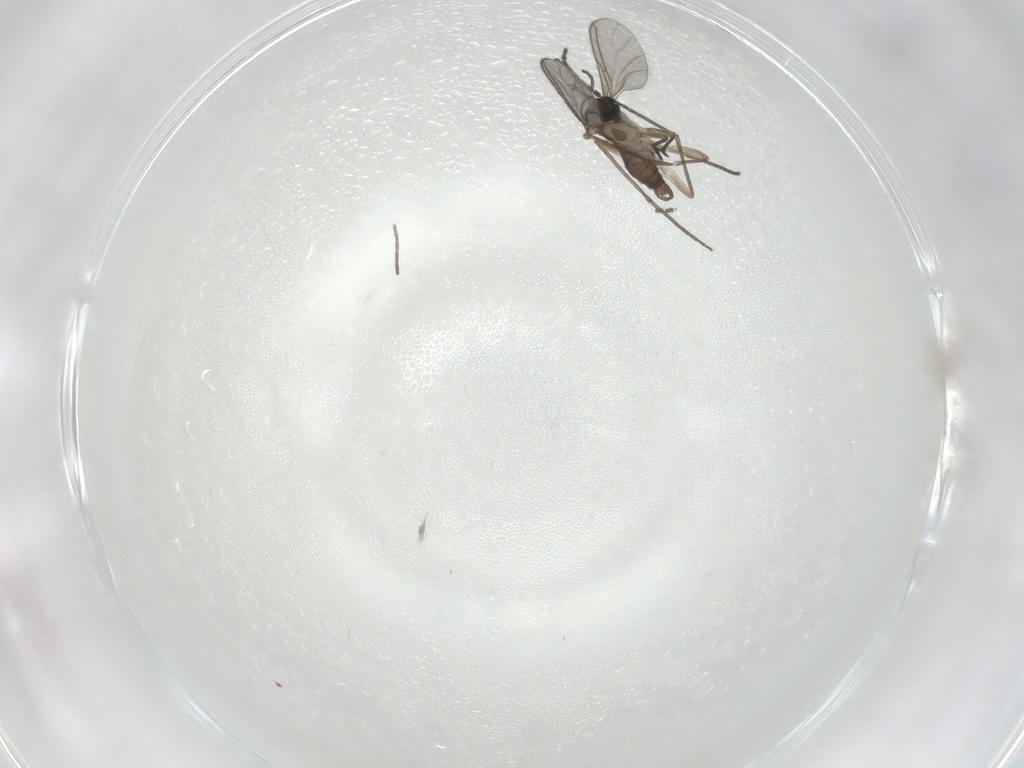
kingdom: Animalia
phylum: Arthropoda
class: Insecta
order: Diptera
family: Sciaridae
